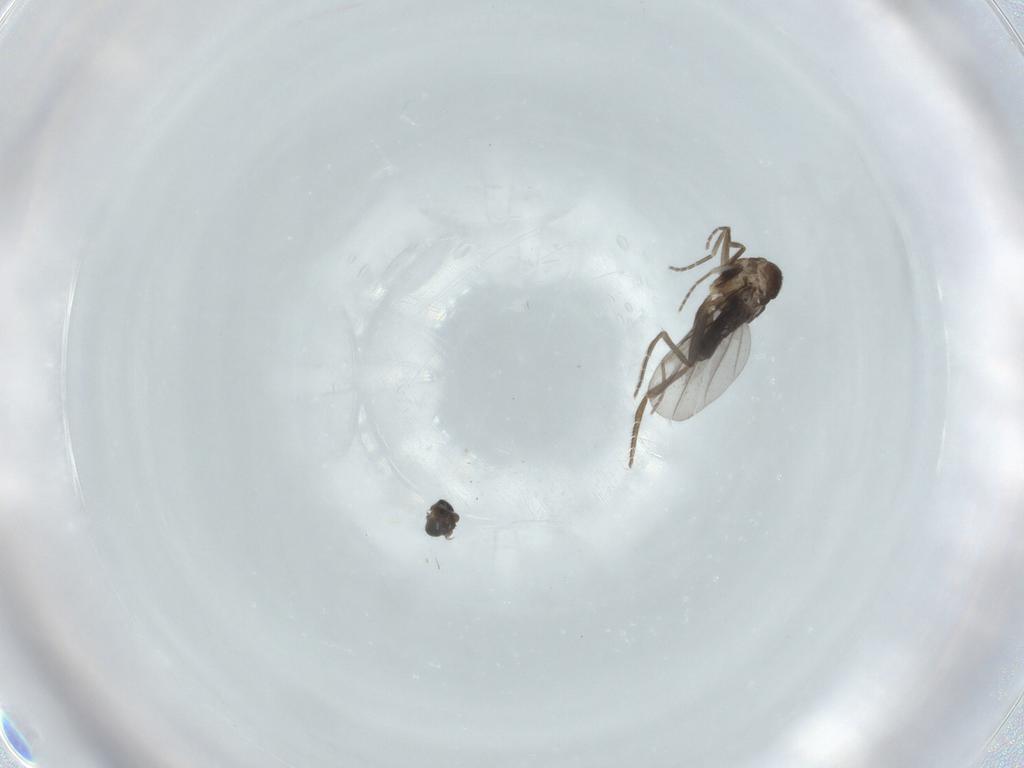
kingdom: Animalia
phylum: Arthropoda
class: Insecta
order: Diptera
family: Phoridae
